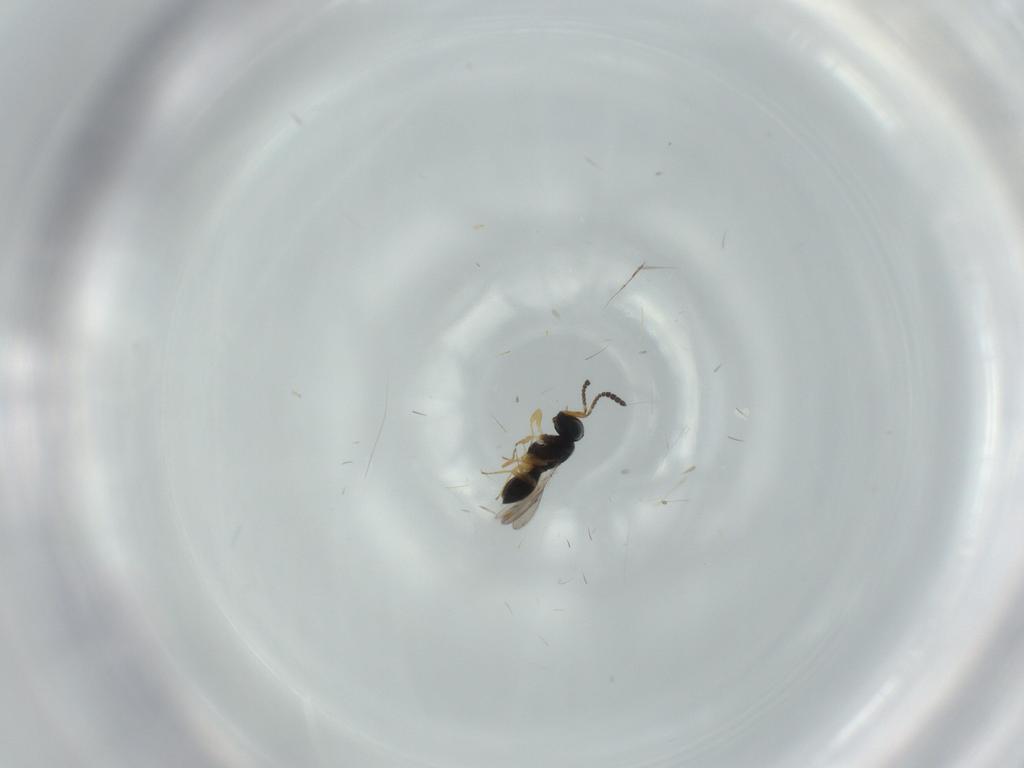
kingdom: Animalia
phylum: Arthropoda
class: Insecta
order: Hymenoptera
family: Scelionidae
